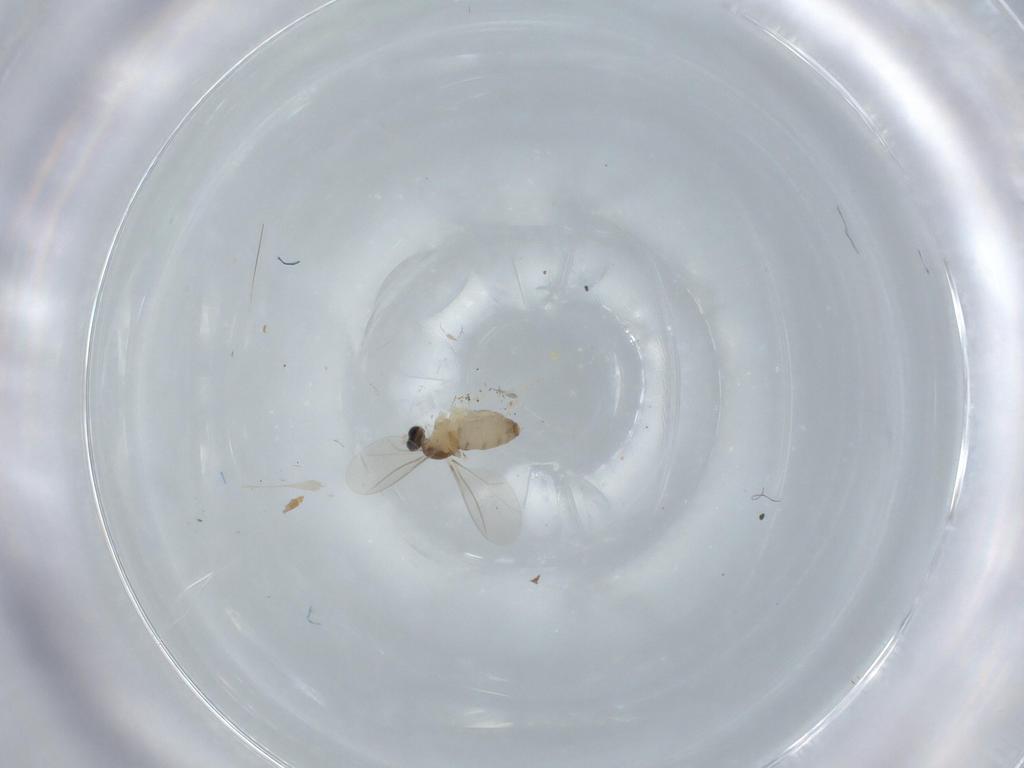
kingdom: Animalia
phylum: Arthropoda
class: Insecta
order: Diptera
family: Cecidomyiidae
